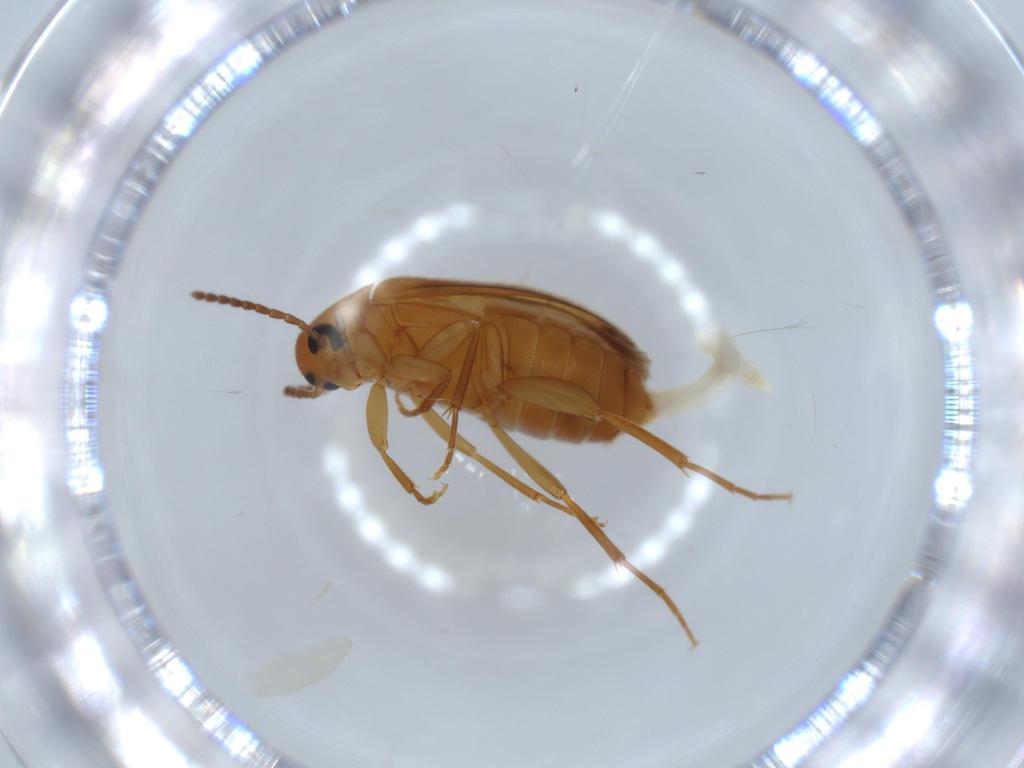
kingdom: Animalia
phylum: Arthropoda
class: Insecta
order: Coleoptera
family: Scraptiidae
